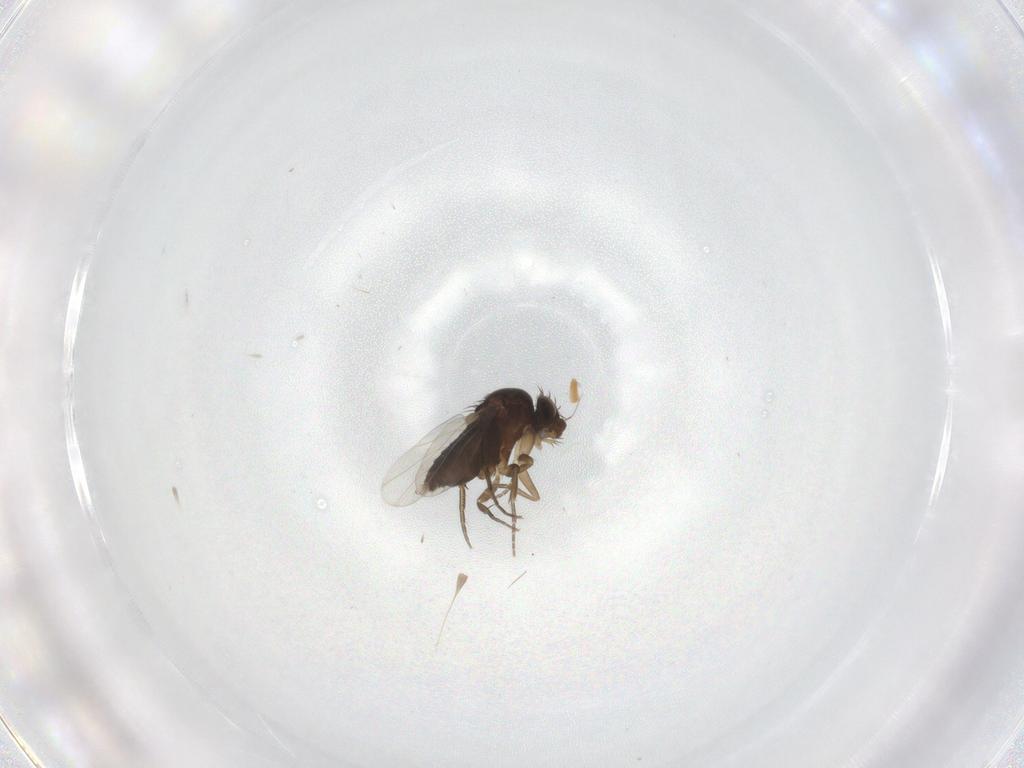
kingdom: Animalia
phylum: Arthropoda
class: Insecta
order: Diptera
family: Phoridae
